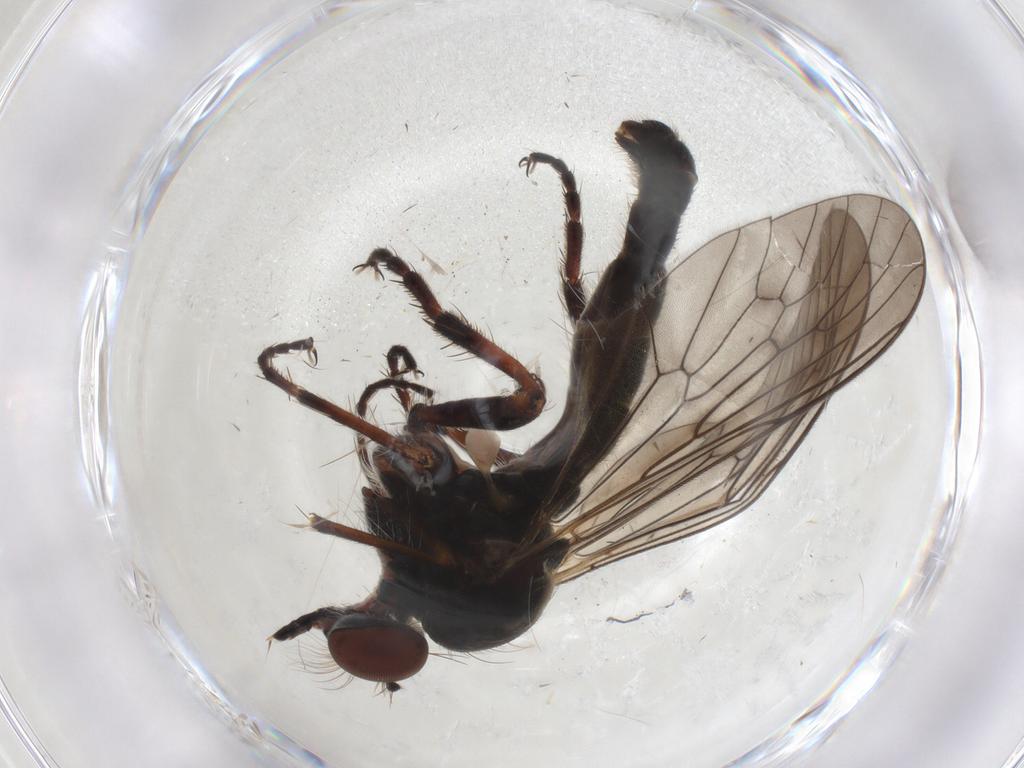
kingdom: Animalia
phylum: Arthropoda
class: Insecta
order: Diptera
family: Asilidae
